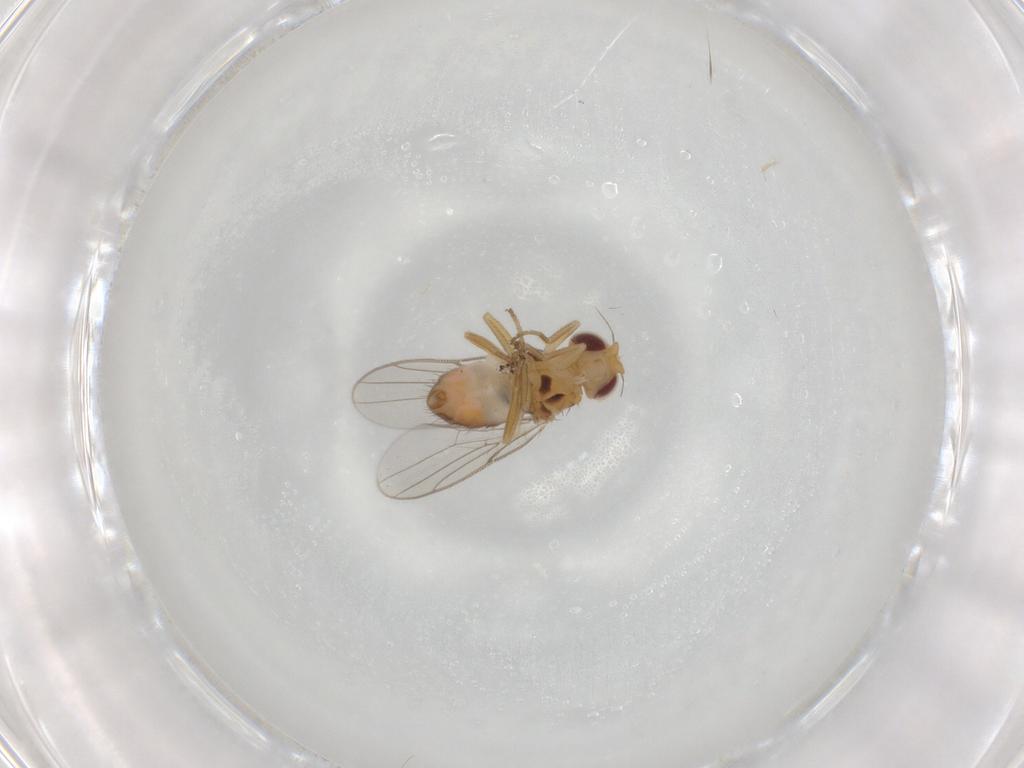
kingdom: Animalia
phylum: Arthropoda
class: Insecta
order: Diptera
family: Chloropidae
